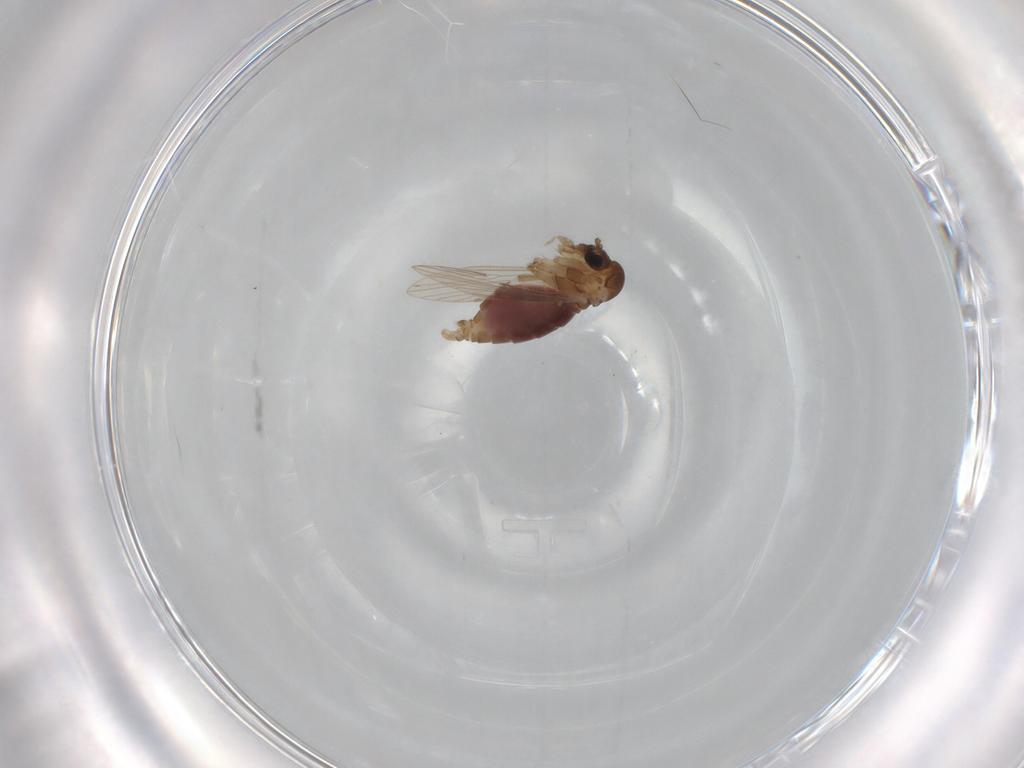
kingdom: Animalia
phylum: Arthropoda
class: Insecta
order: Diptera
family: Psychodidae
